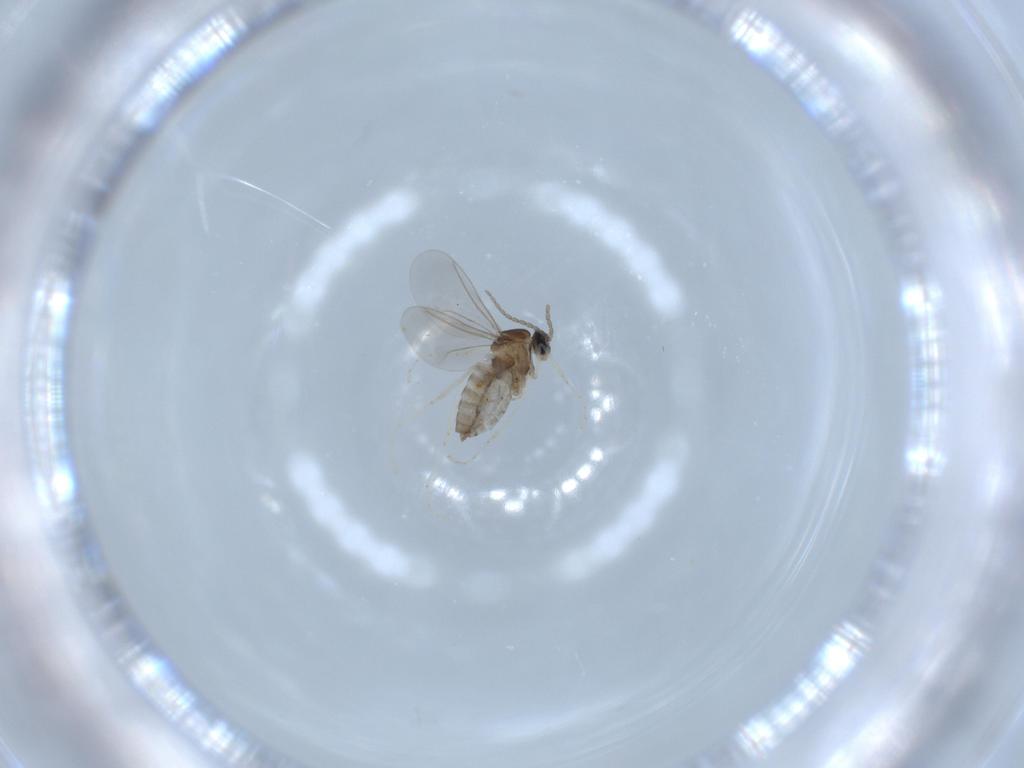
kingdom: Animalia
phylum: Arthropoda
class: Insecta
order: Diptera
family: Cecidomyiidae
